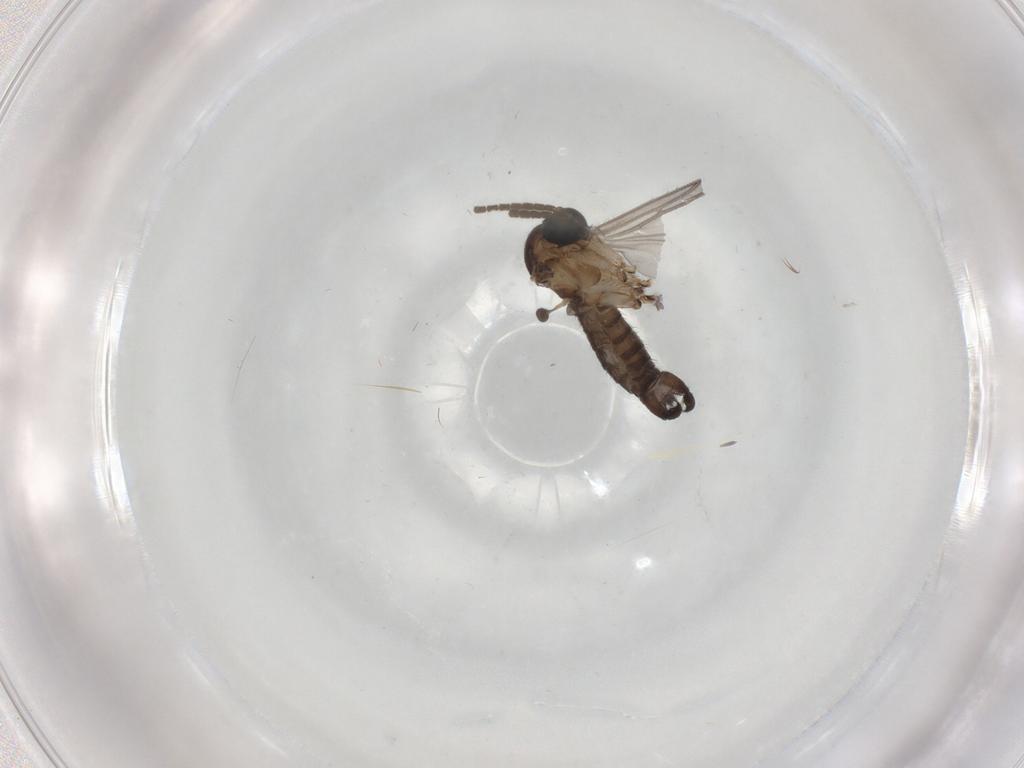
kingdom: Animalia
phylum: Arthropoda
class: Insecta
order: Diptera
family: Sciaridae
